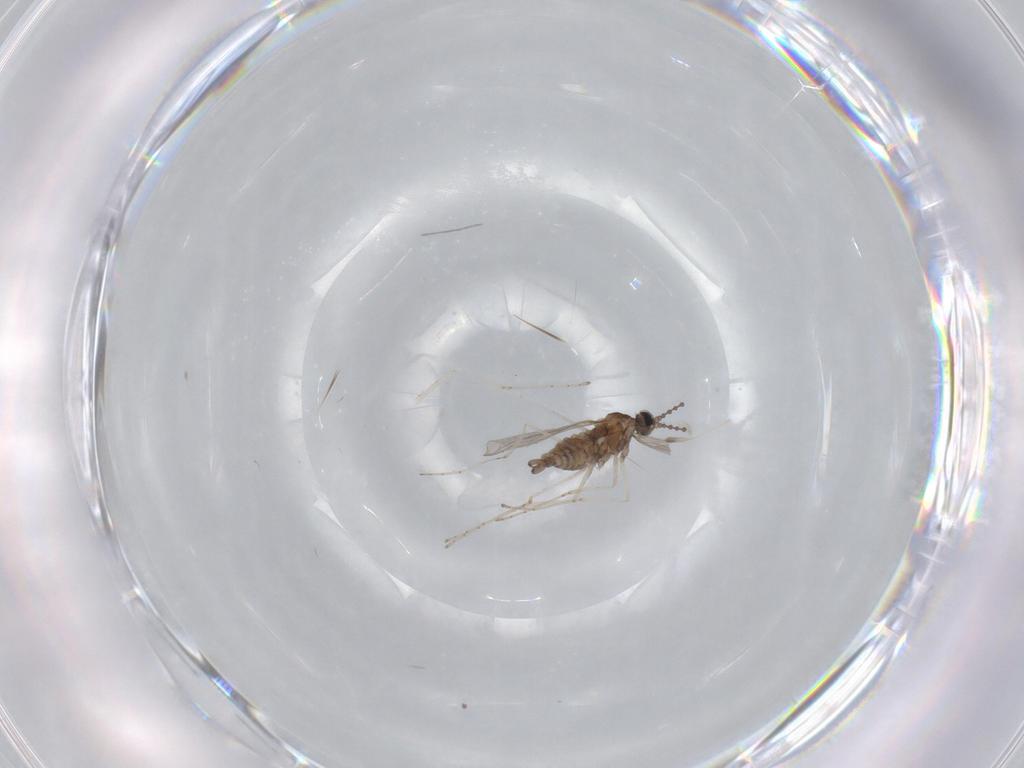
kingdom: Animalia
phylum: Arthropoda
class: Insecta
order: Diptera
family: Cecidomyiidae
